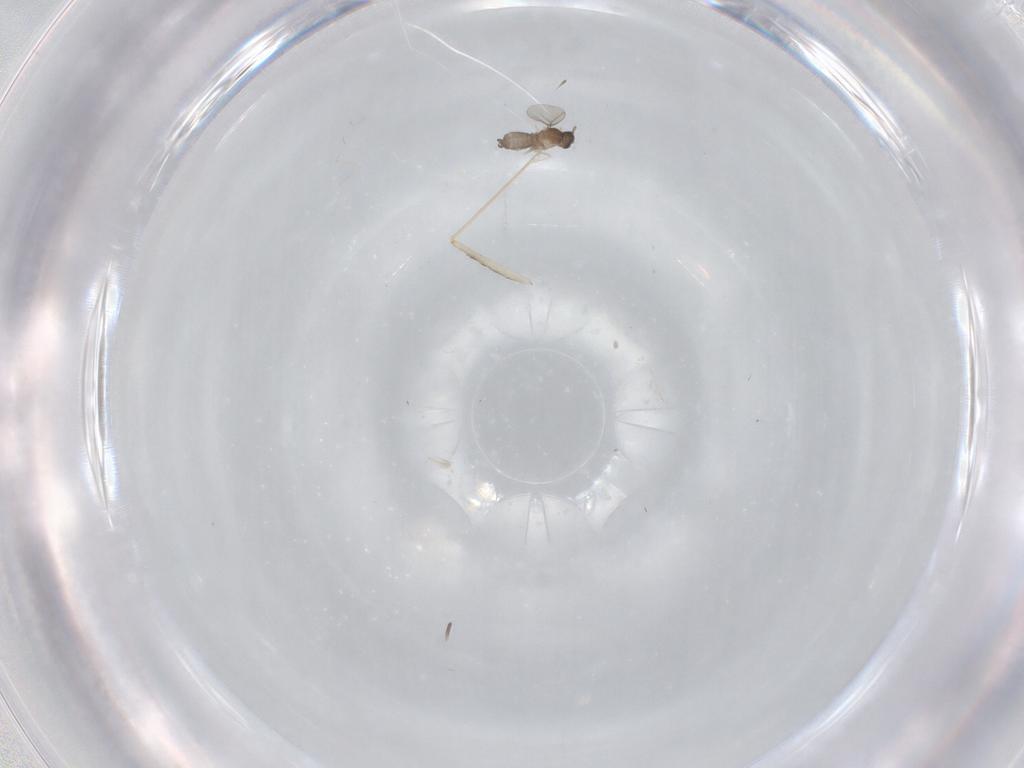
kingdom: Animalia
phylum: Arthropoda
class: Insecta
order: Diptera
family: Cecidomyiidae
